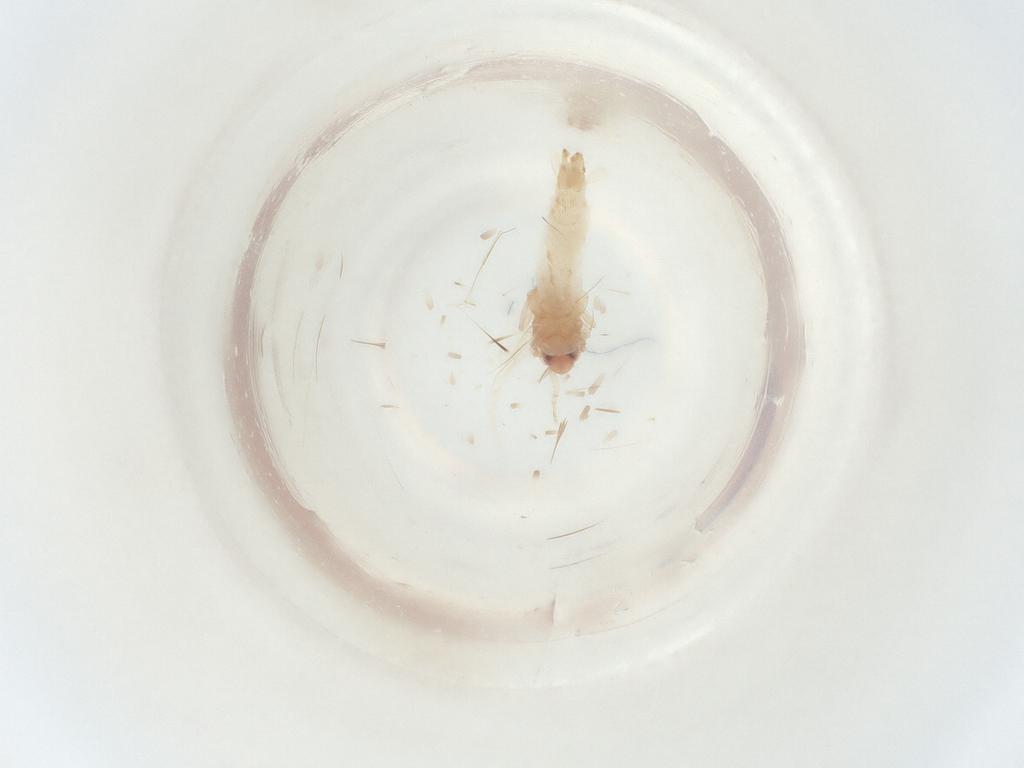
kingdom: Animalia
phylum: Arthropoda
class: Insecta
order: Lepidoptera
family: Lyonetiidae
